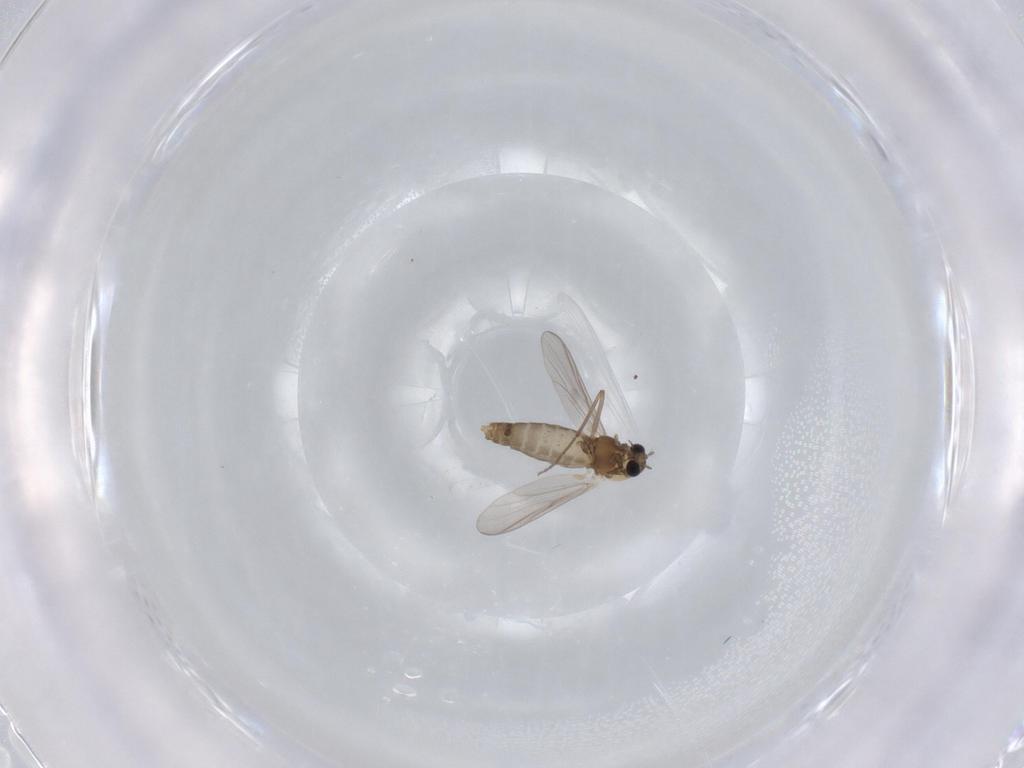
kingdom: Animalia
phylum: Arthropoda
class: Insecta
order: Diptera
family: Chironomidae
